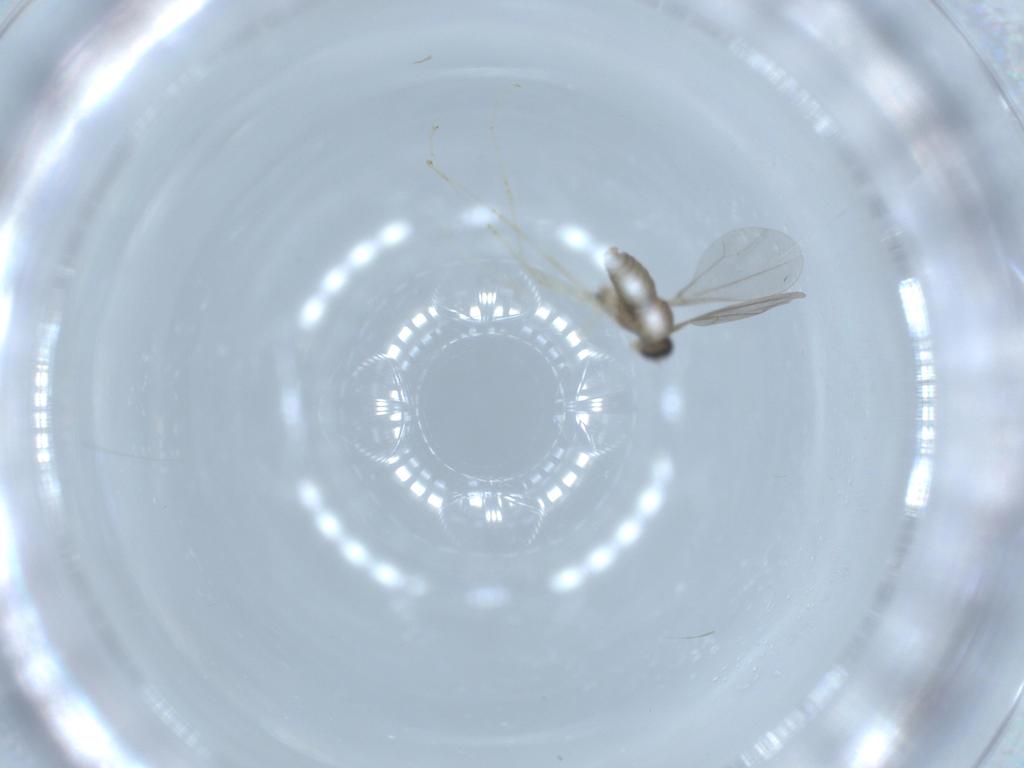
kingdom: Animalia
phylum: Arthropoda
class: Insecta
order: Diptera
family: Cecidomyiidae
